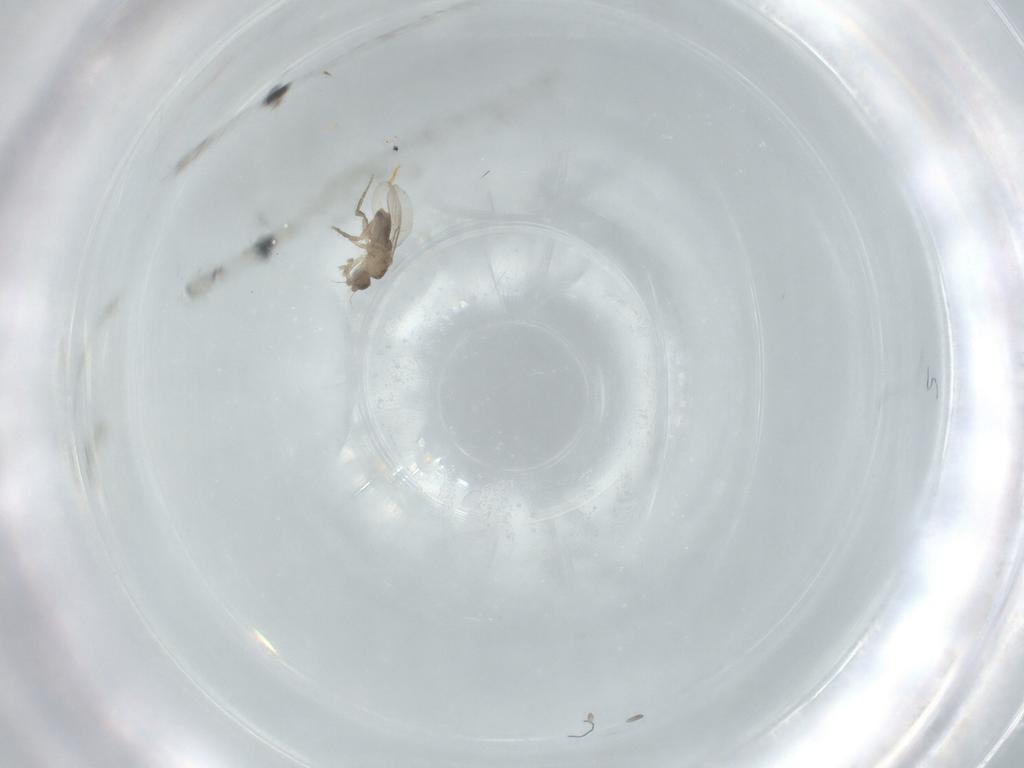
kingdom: Animalia
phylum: Arthropoda
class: Insecta
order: Diptera
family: Phoridae
